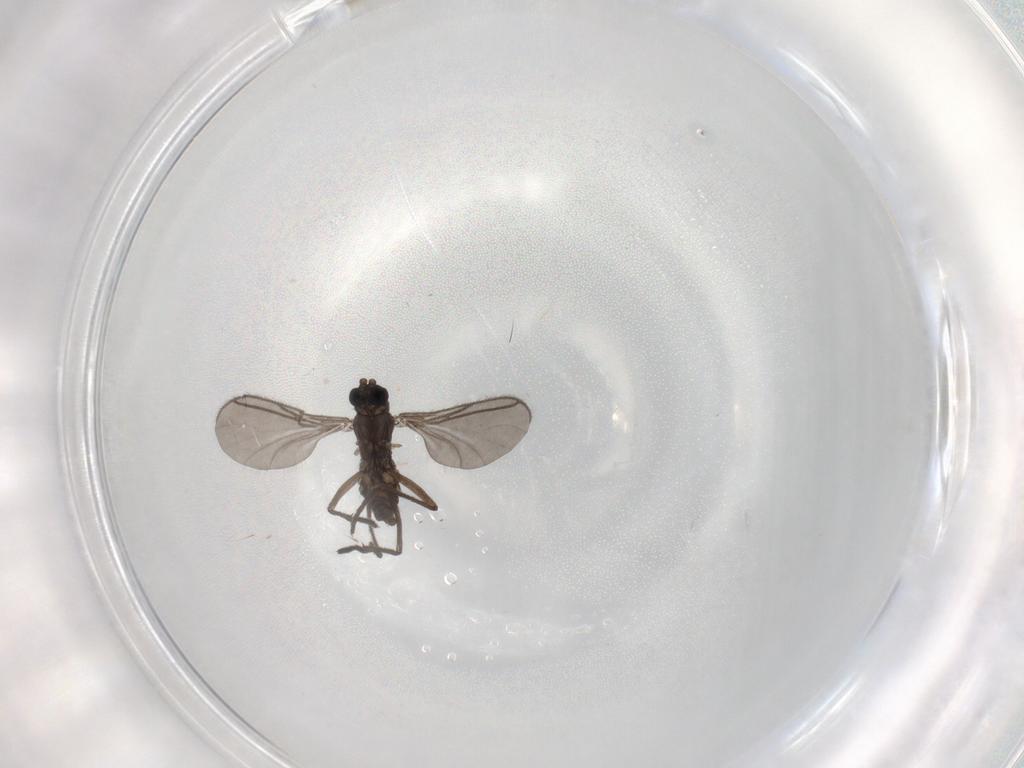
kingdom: Animalia
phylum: Arthropoda
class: Insecta
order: Diptera
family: Sciaridae
